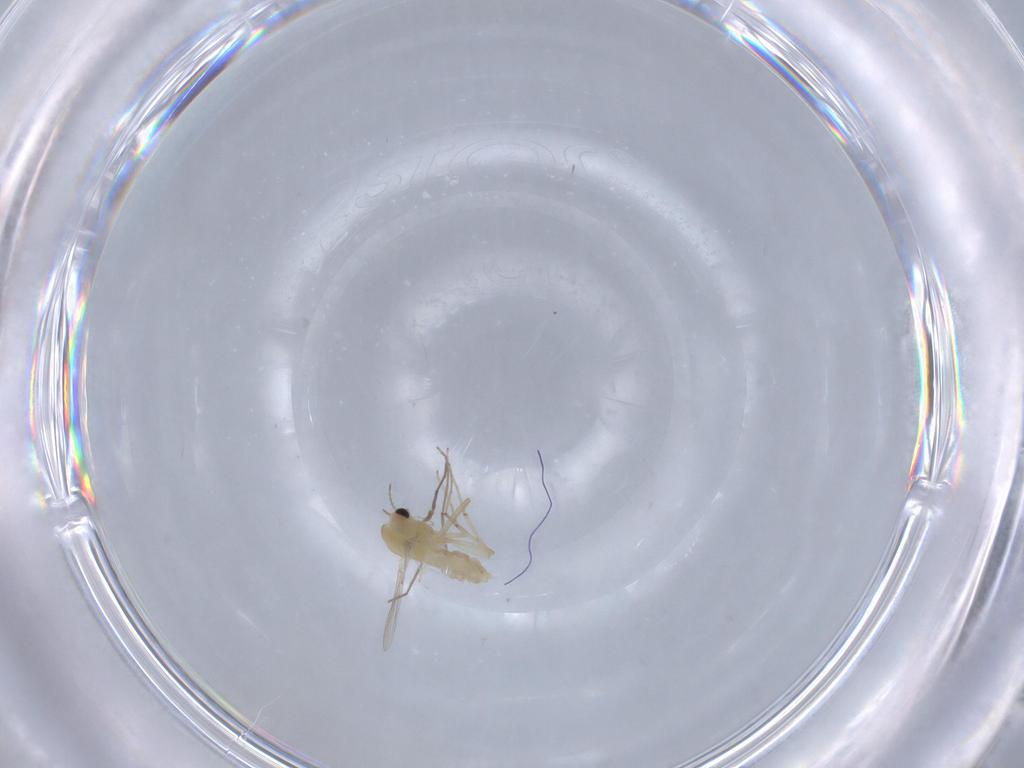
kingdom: Animalia
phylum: Arthropoda
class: Insecta
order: Diptera
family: Chironomidae
